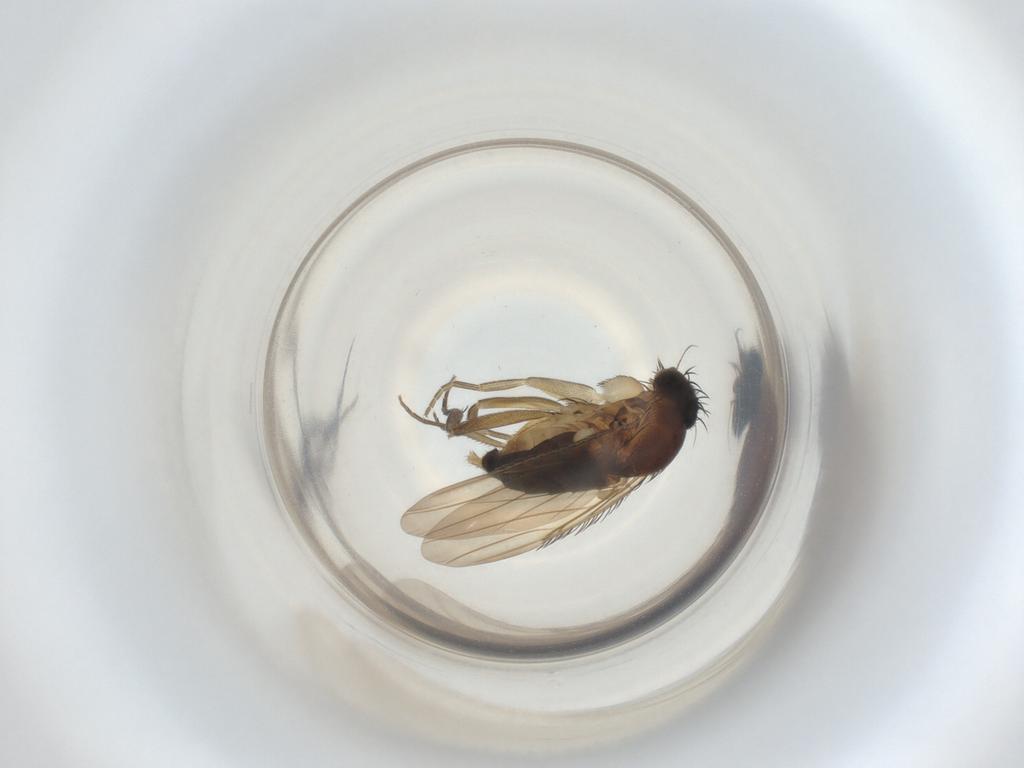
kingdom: Animalia
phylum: Arthropoda
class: Insecta
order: Diptera
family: Phoridae
